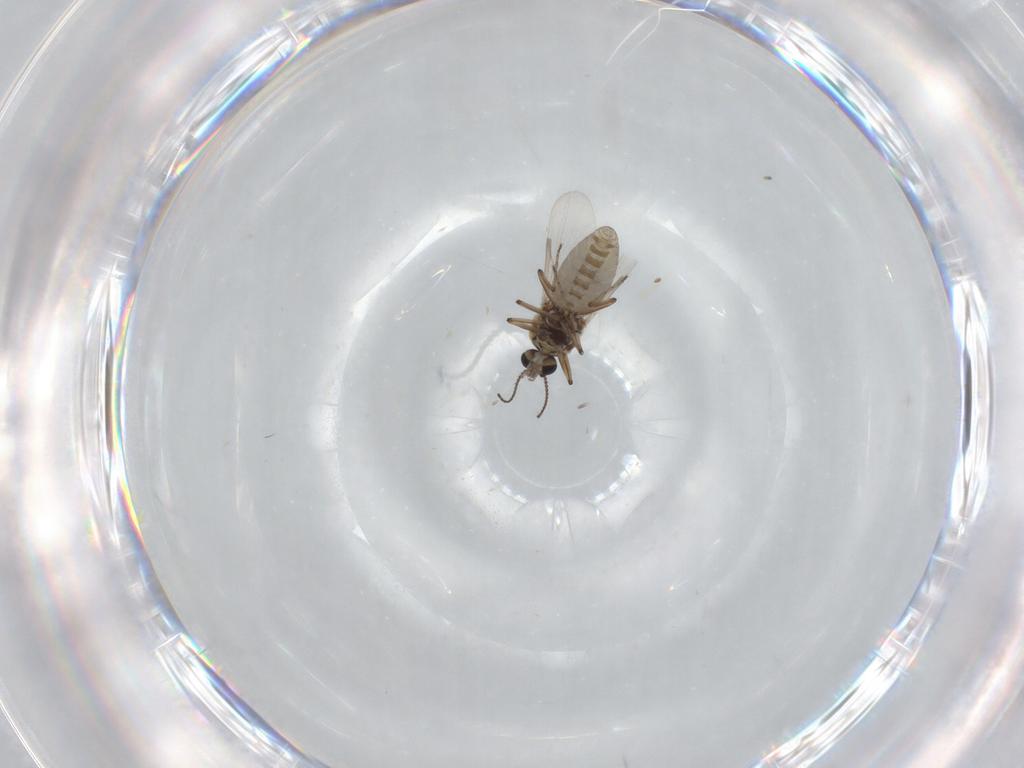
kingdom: Animalia
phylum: Arthropoda
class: Insecta
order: Diptera
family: Ceratopogonidae
